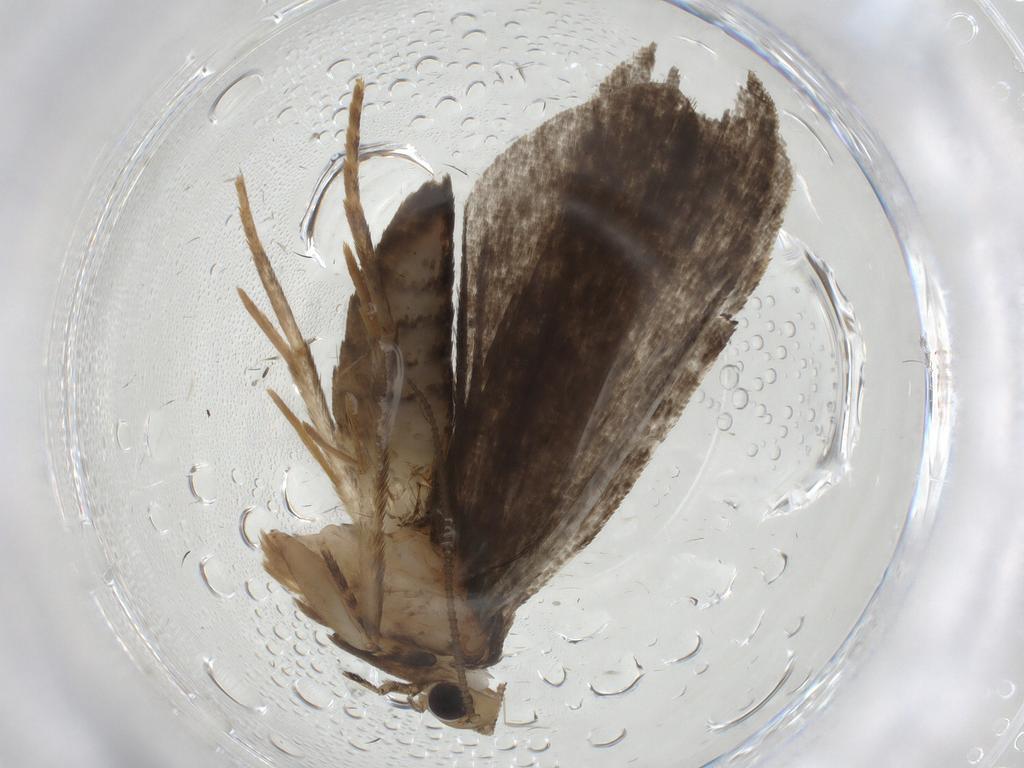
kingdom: Animalia
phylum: Arthropoda
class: Insecta
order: Lepidoptera
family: Tineidae
